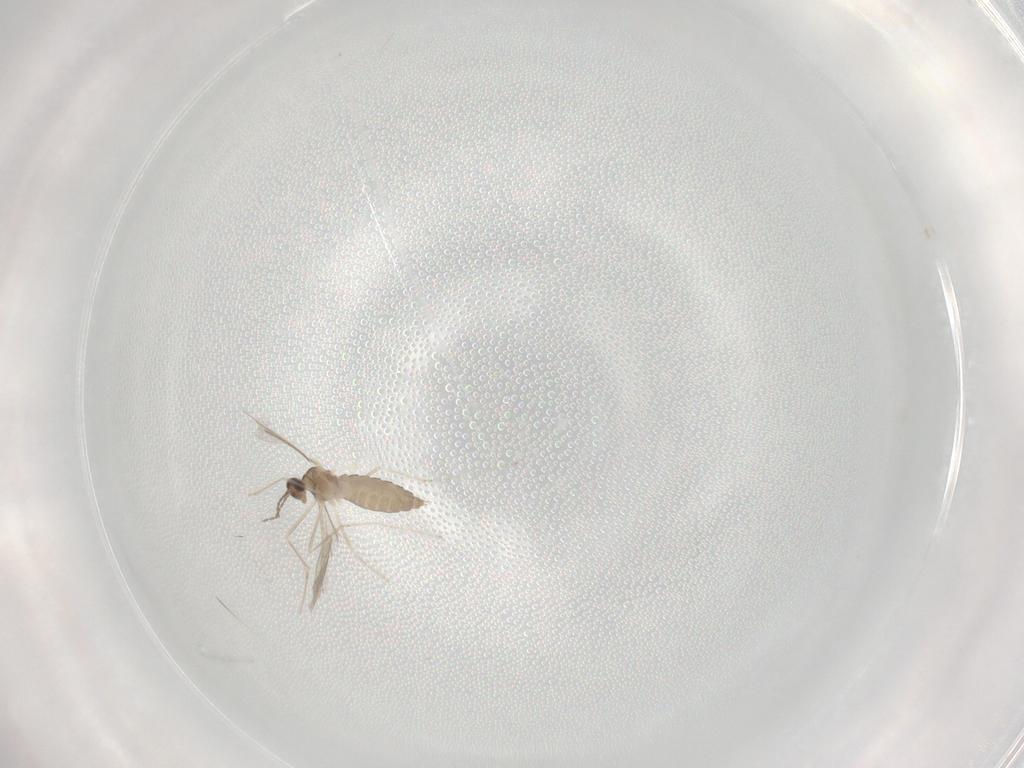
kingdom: Animalia
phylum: Arthropoda
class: Insecta
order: Diptera
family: Cecidomyiidae
